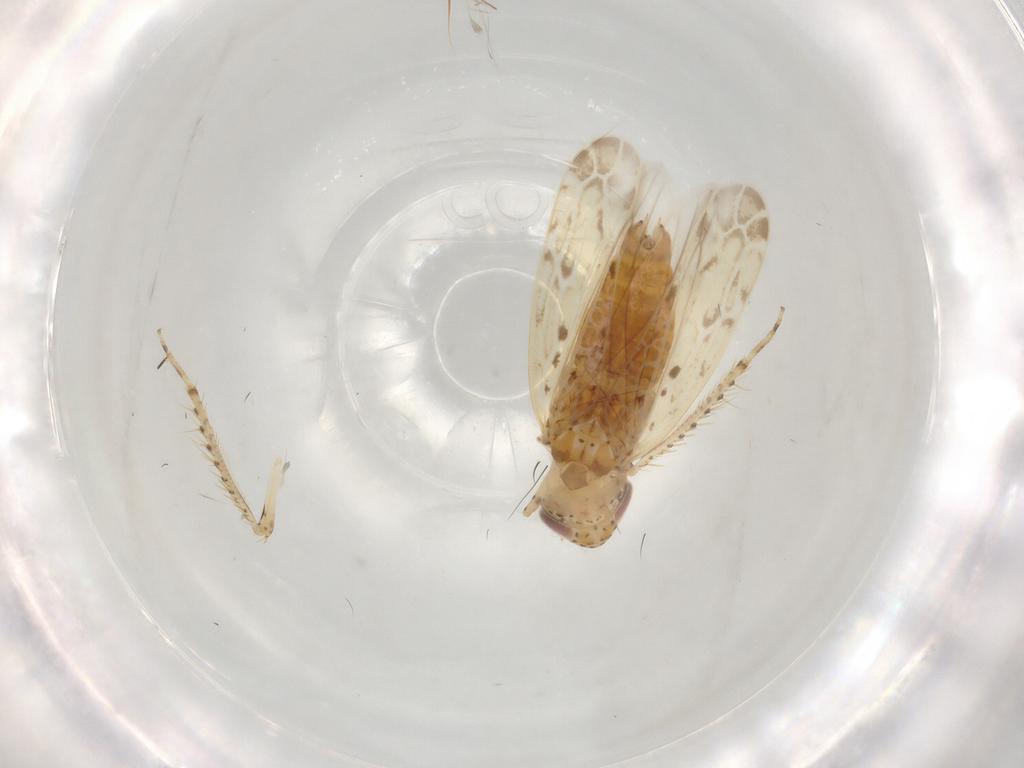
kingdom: Animalia
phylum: Arthropoda
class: Insecta
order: Hemiptera
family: Cicadellidae
